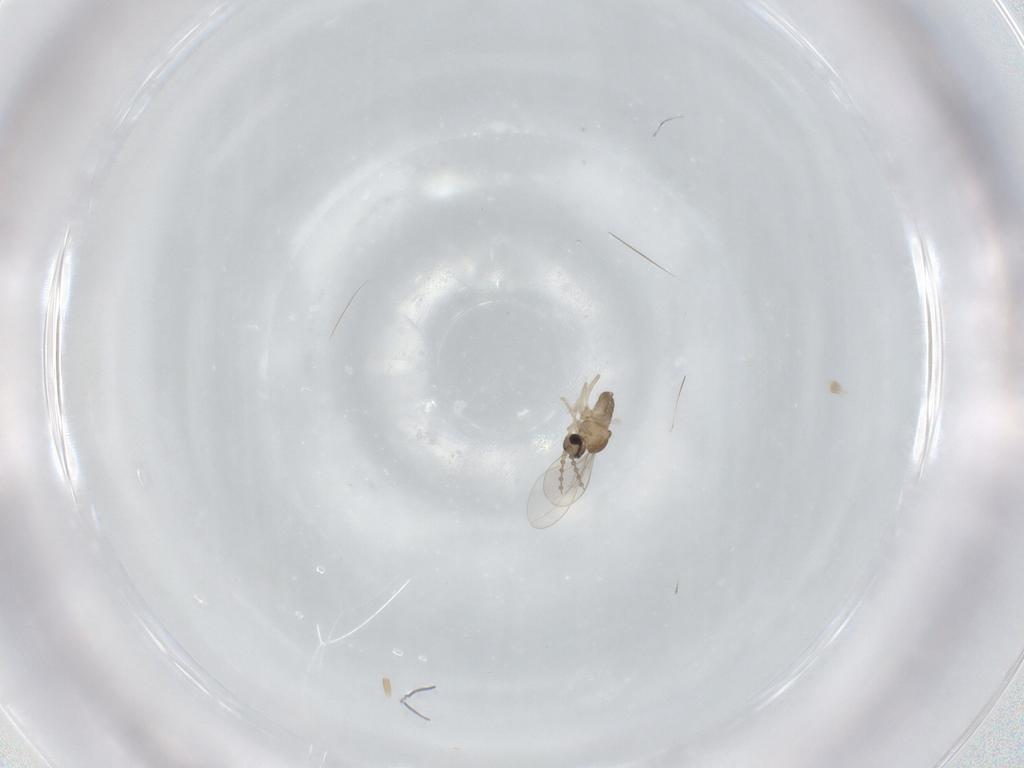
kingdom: Animalia
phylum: Arthropoda
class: Insecta
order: Diptera
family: Cecidomyiidae
